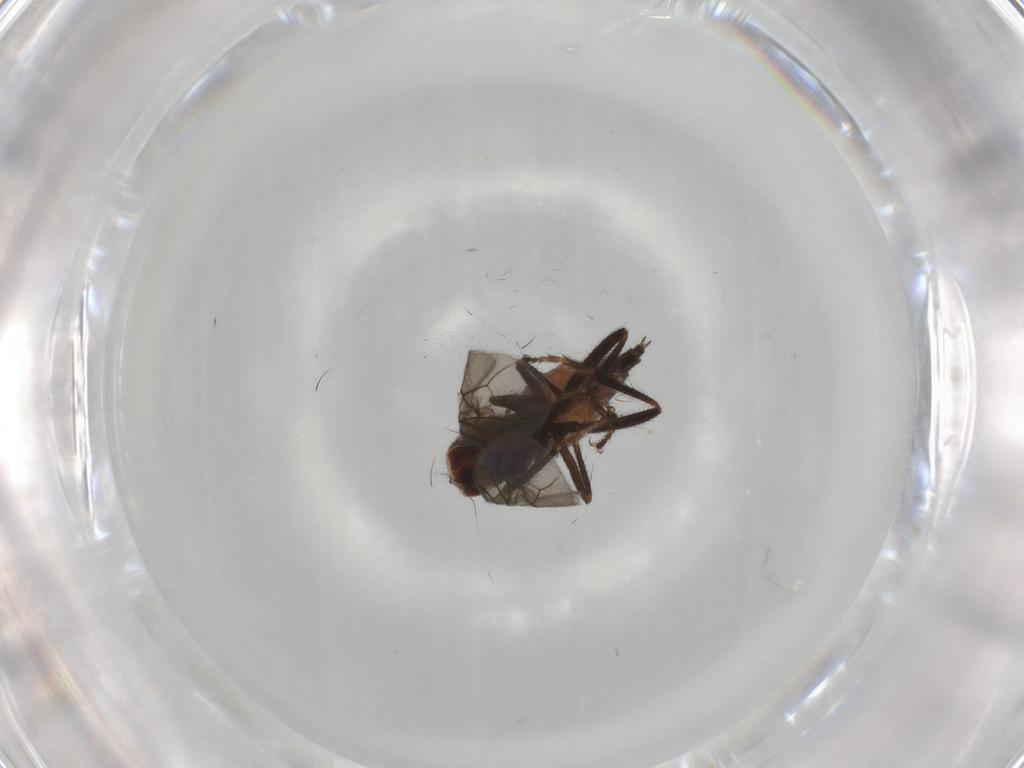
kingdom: Animalia
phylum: Arthropoda
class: Insecta
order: Diptera
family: Hybotidae
